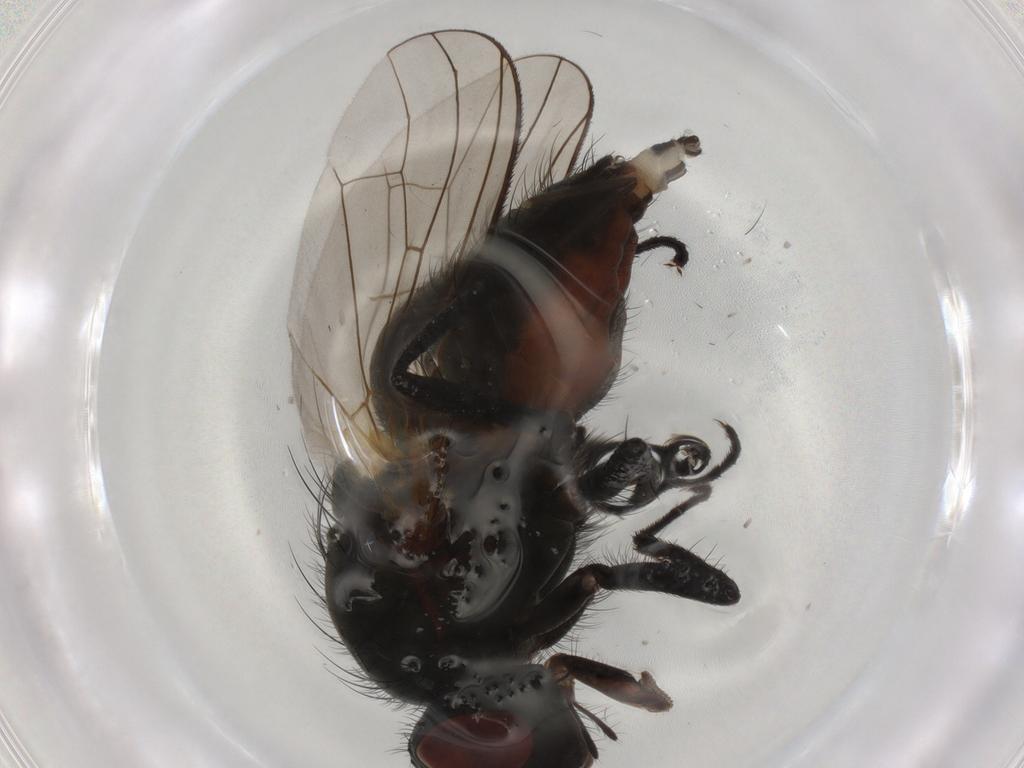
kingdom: Animalia
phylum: Arthropoda
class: Insecta
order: Diptera
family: Anthomyiidae
